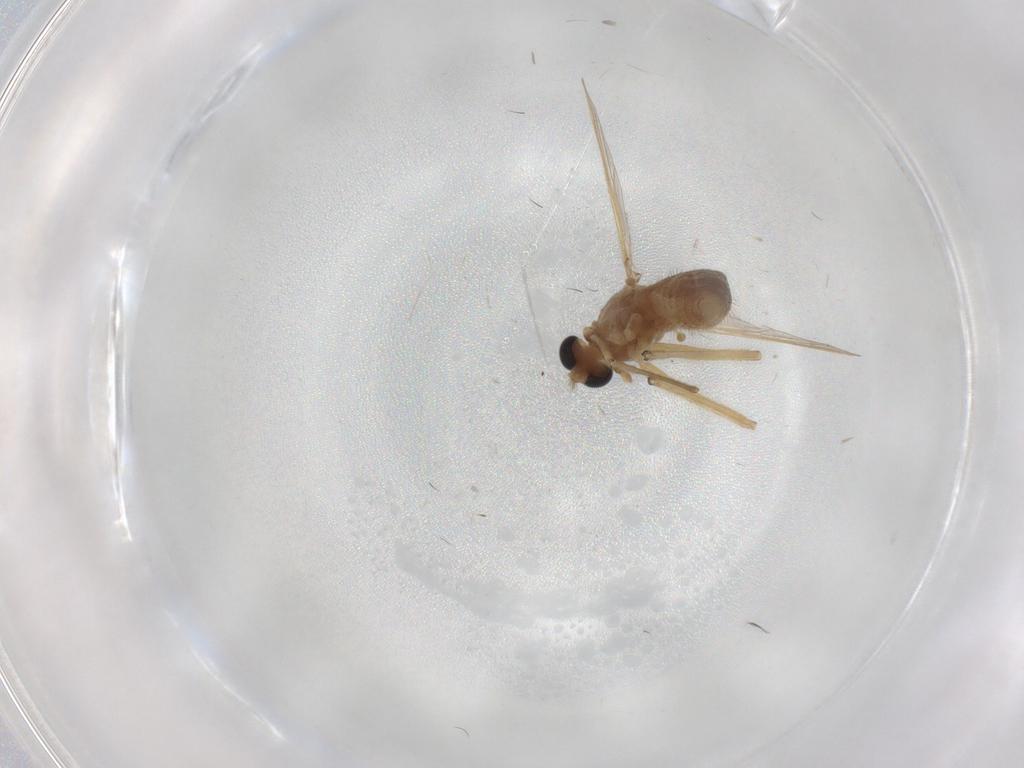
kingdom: Animalia
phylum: Arthropoda
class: Insecta
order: Diptera
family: Chironomidae
